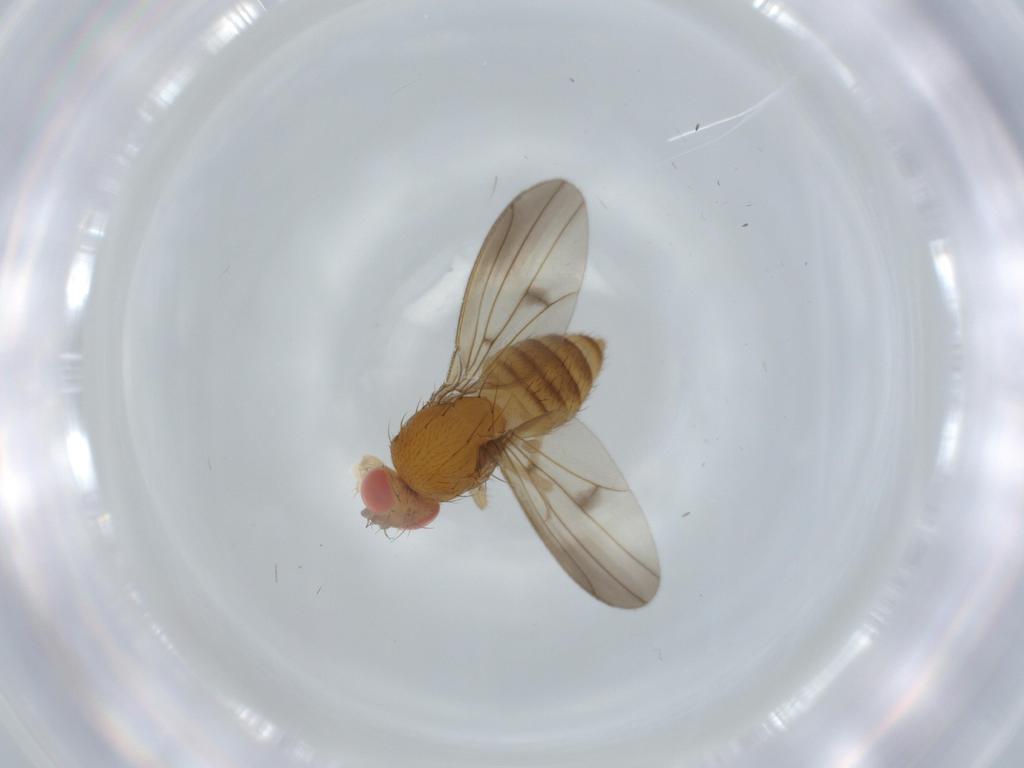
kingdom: Animalia
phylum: Arthropoda
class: Insecta
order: Diptera
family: Drosophilidae
